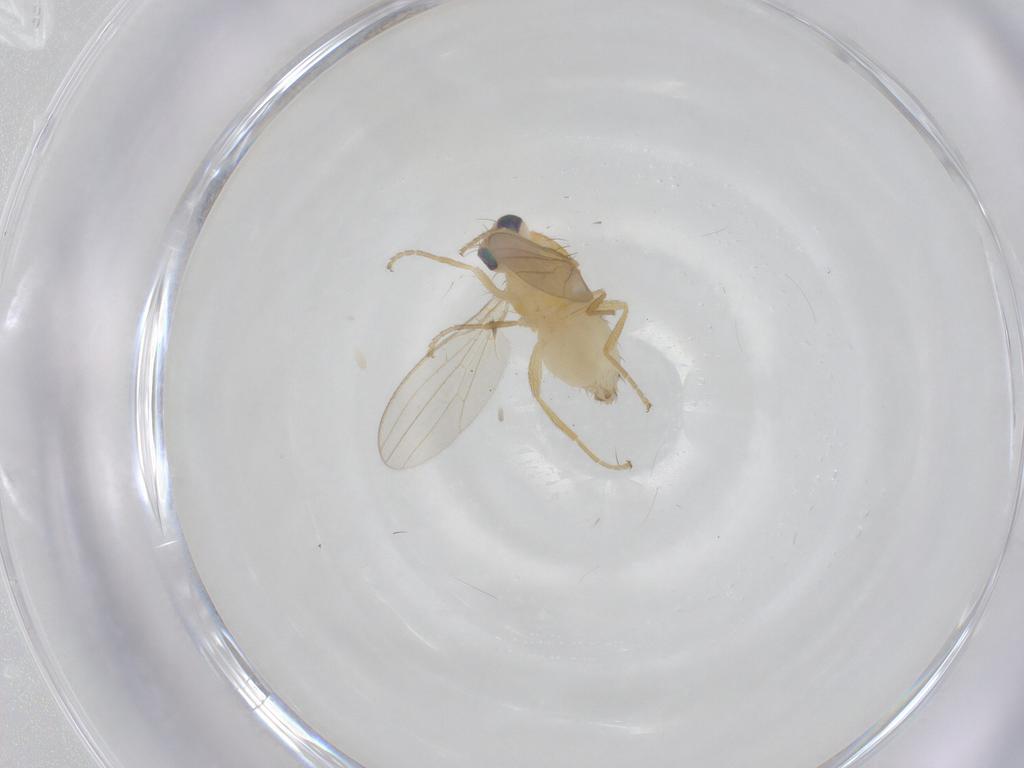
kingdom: Animalia
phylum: Arthropoda
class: Insecta
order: Diptera
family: Chyromyidae
